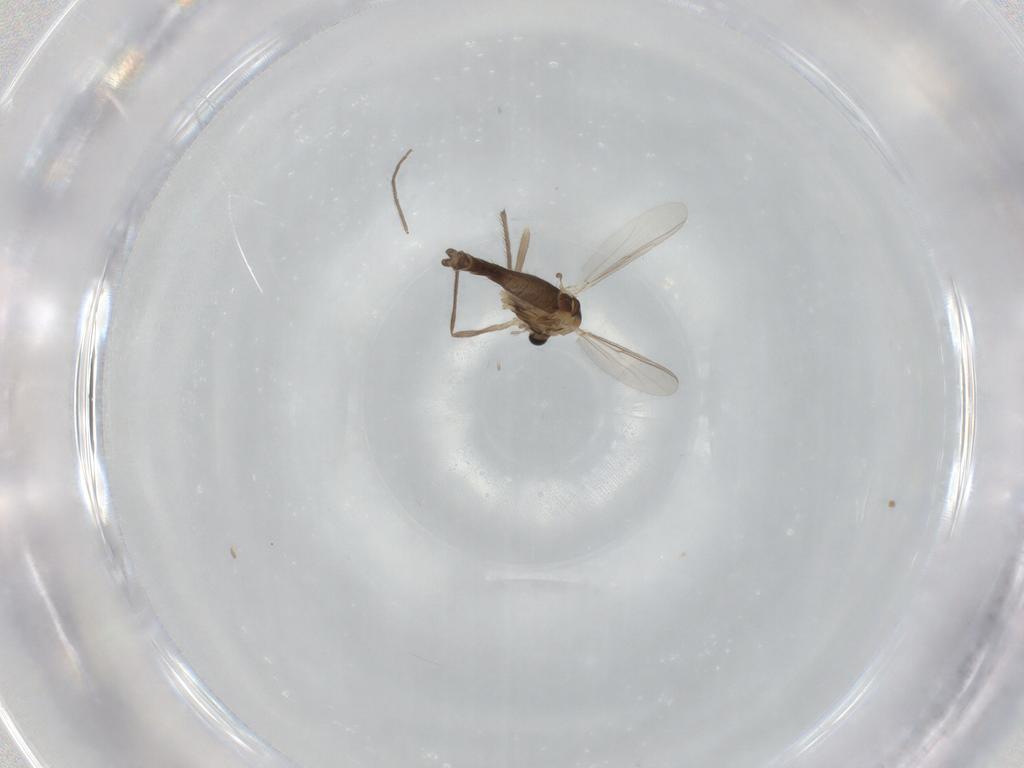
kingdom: Animalia
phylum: Arthropoda
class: Insecta
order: Diptera
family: Chironomidae
